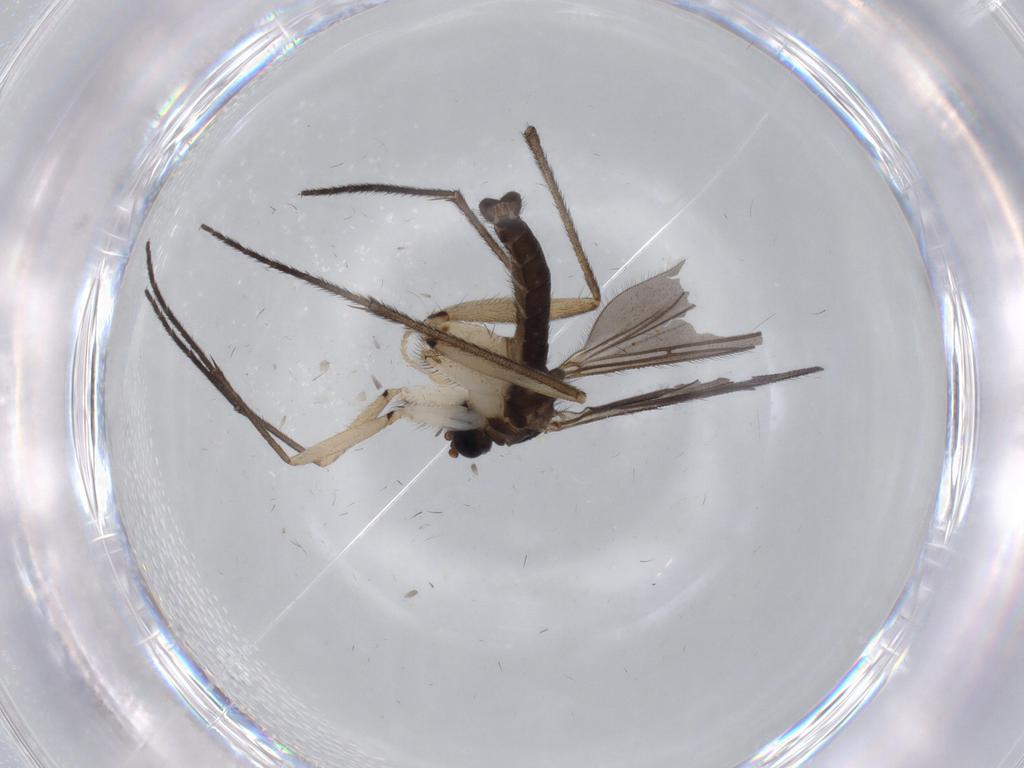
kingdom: Animalia
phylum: Arthropoda
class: Insecta
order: Diptera
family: Sciaridae
